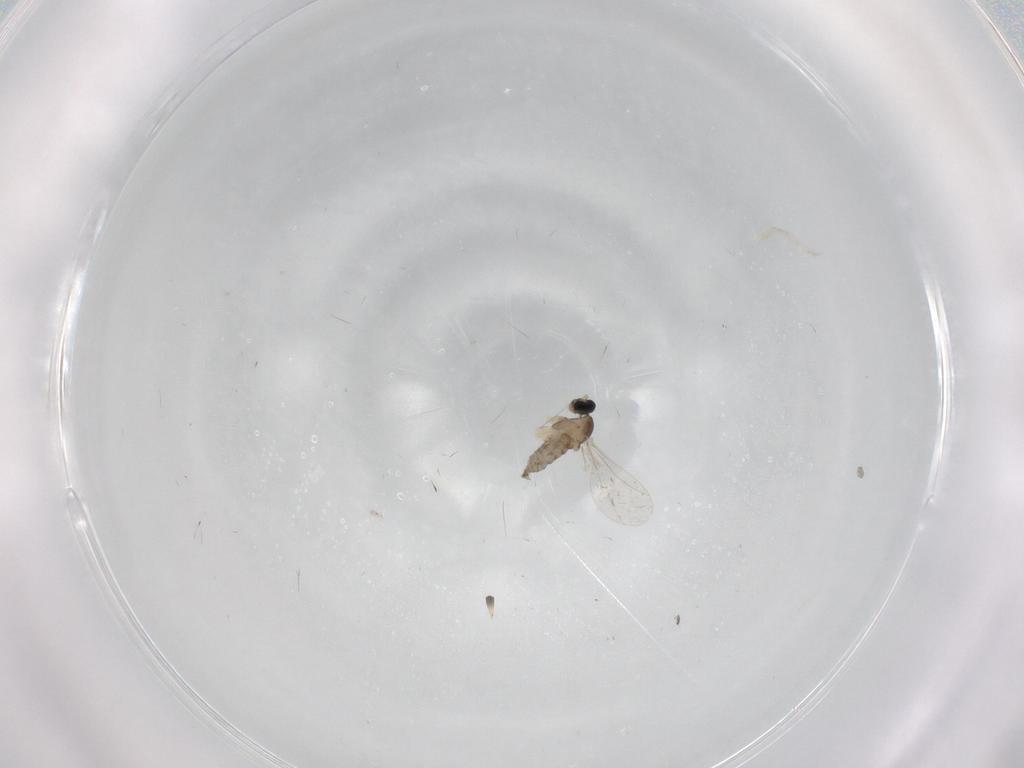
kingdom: Animalia
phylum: Arthropoda
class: Insecta
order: Diptera
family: Cecidomyiidae
